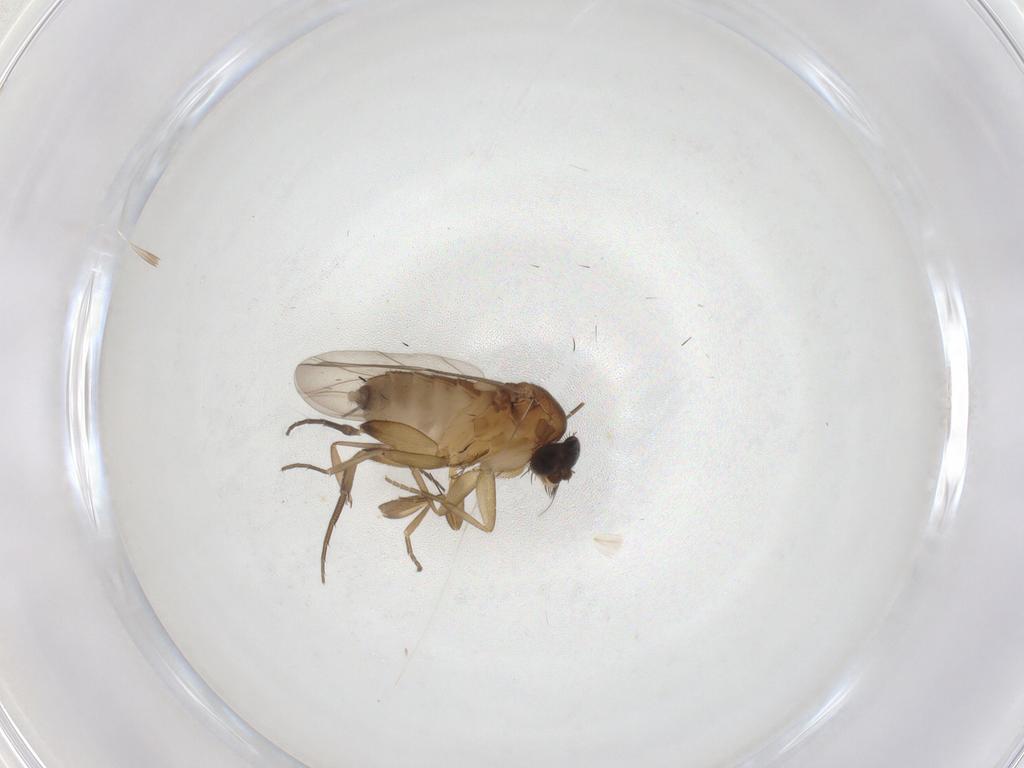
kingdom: Animalia
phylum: Arthropoda
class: Insecta
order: Diptera
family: Phoridae
